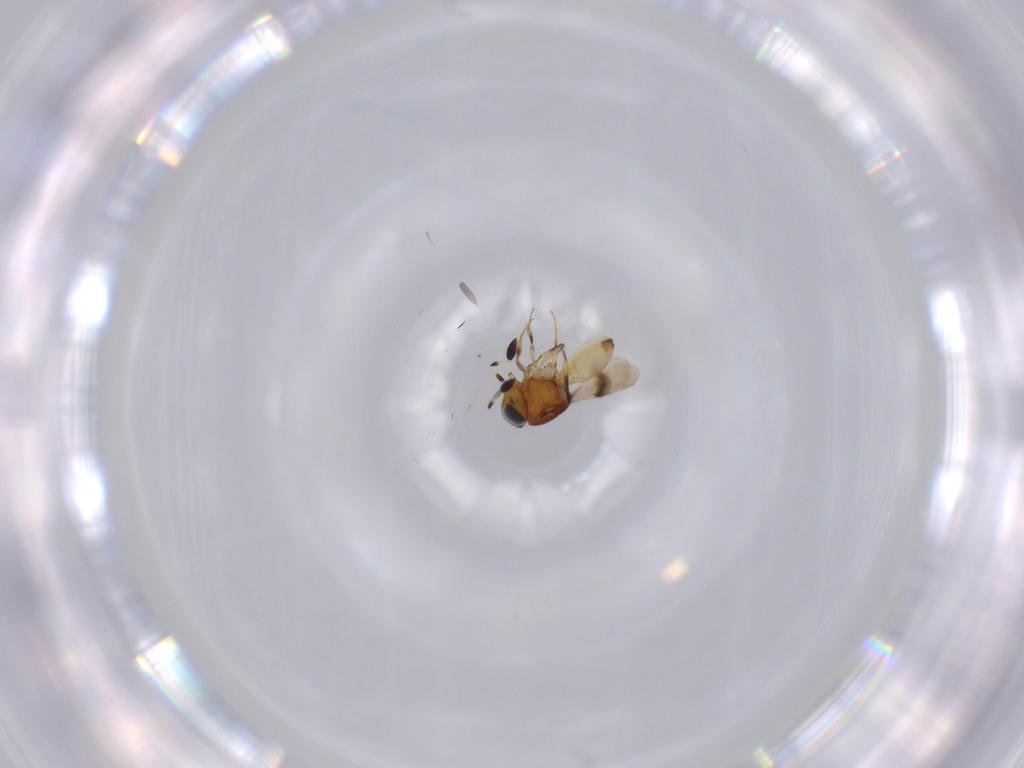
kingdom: Animalia
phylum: Arthropoda
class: Arachnida
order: Araneae
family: Pholcidae
